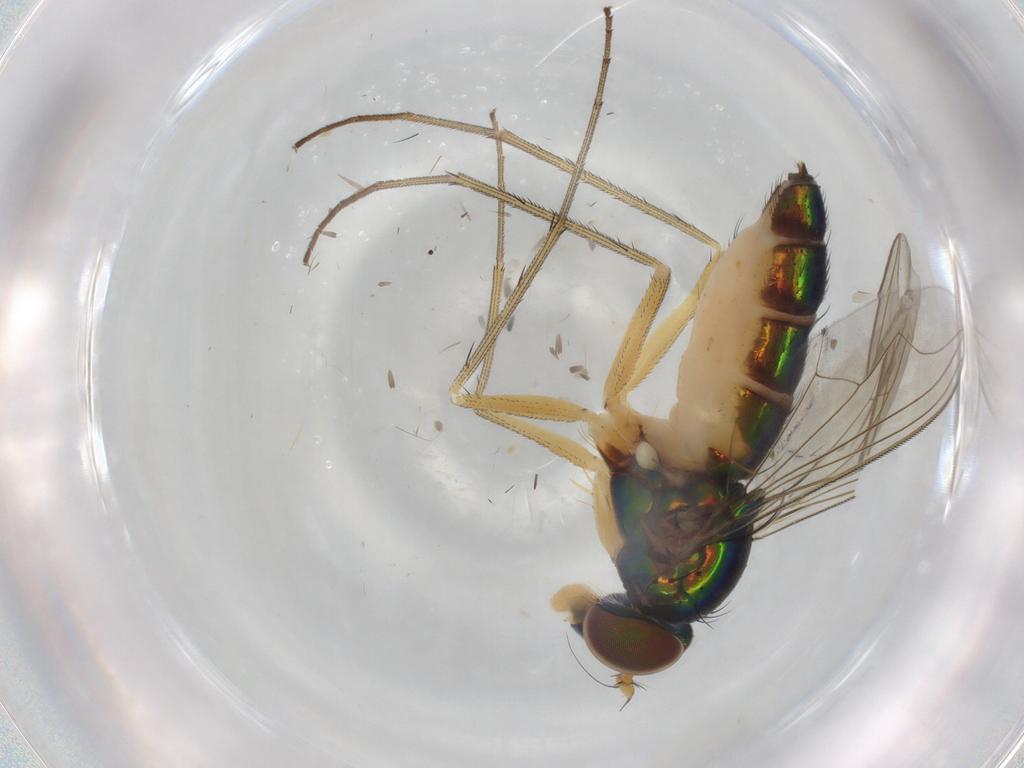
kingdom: Animalia
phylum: Arthropoda
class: Insecta
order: Diptera
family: Dolichopodidae
